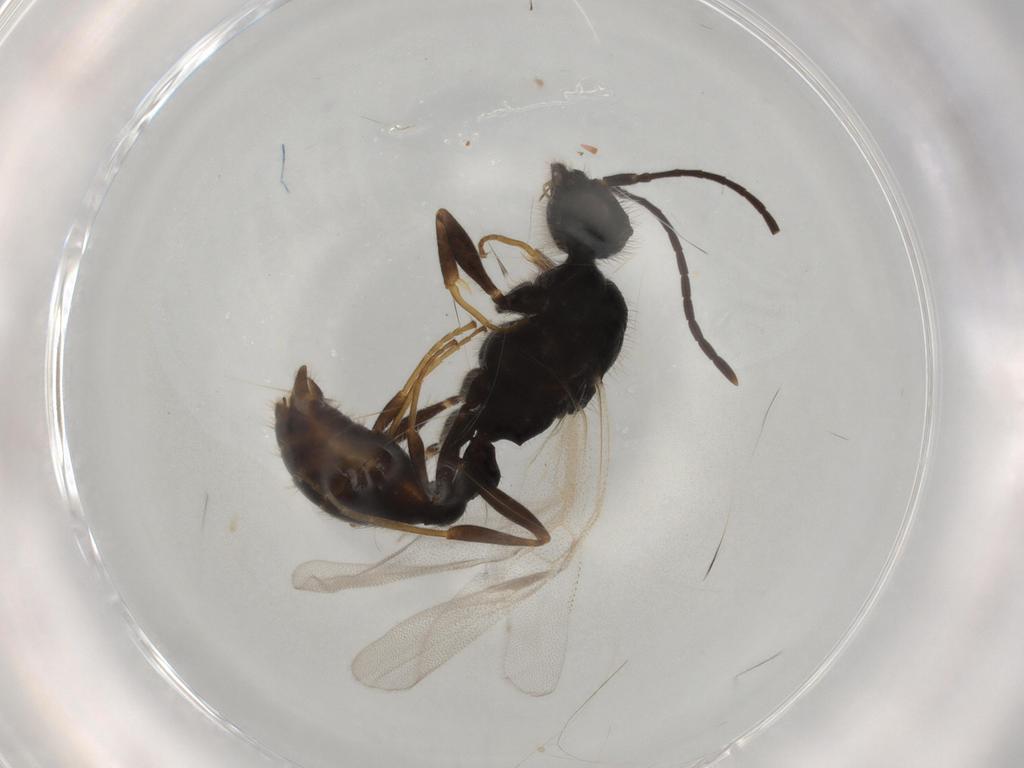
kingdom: Animalia
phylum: Arthropoda
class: Insecta
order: Hymenoptera
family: Formicidae
